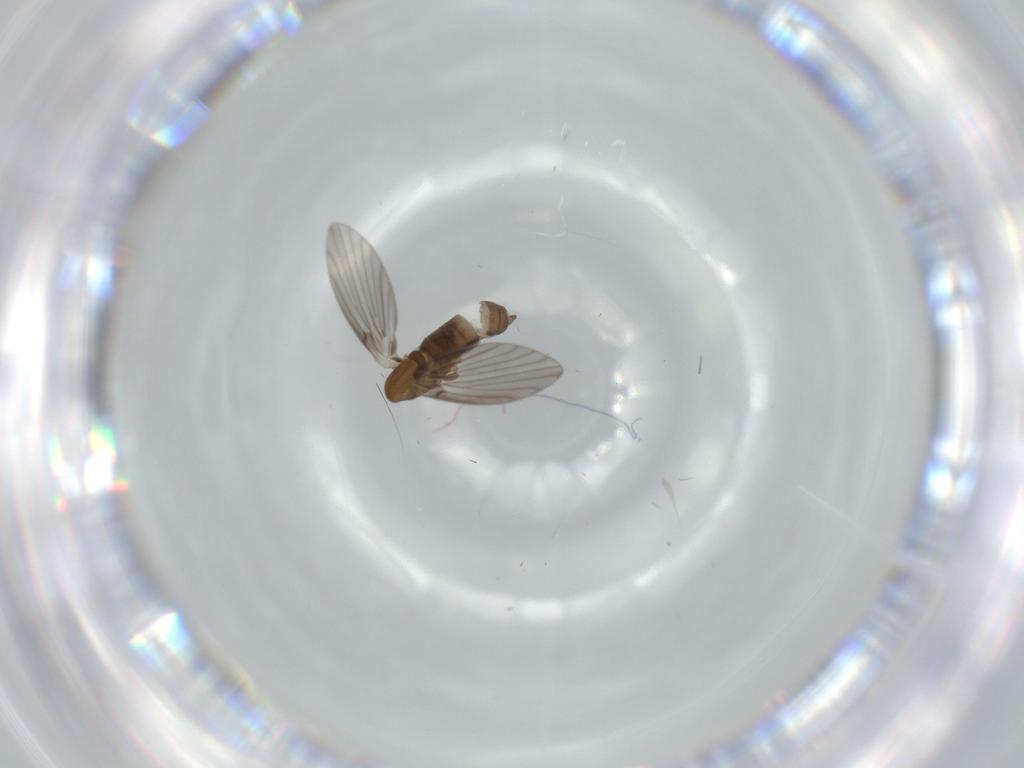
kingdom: Animalia
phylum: Arthropoda
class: Insecta
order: Diptera
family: Psychodidae
